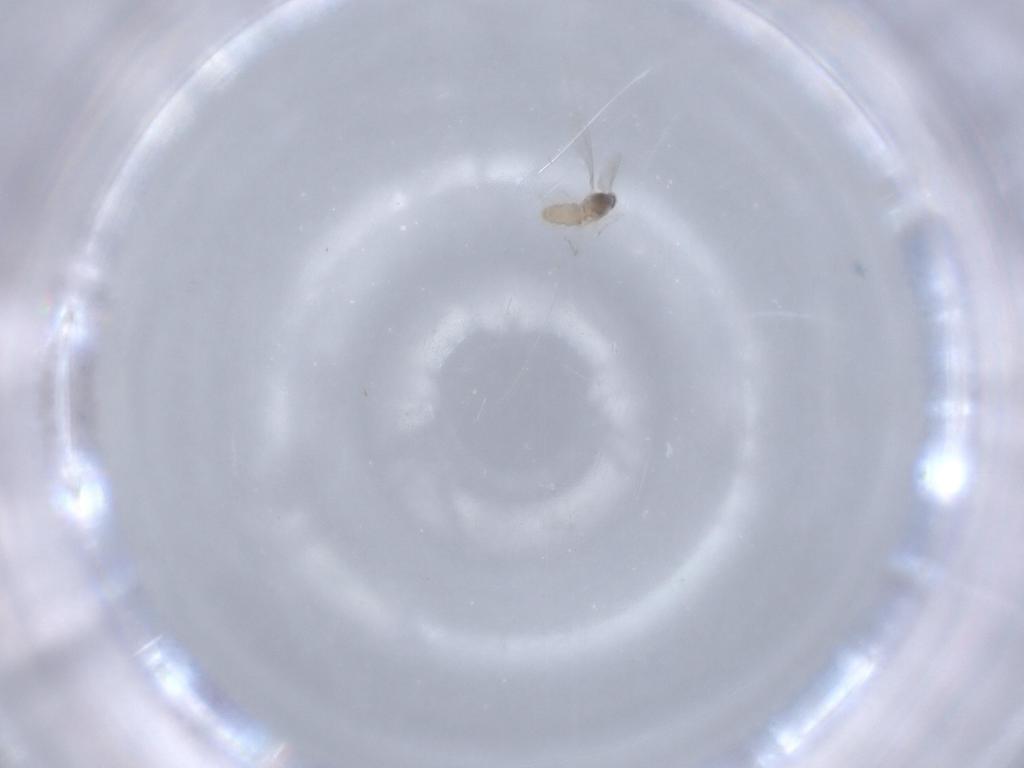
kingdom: Animalia
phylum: Arthropoda
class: Insecta
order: Diptera
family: Cecidomyiidae
